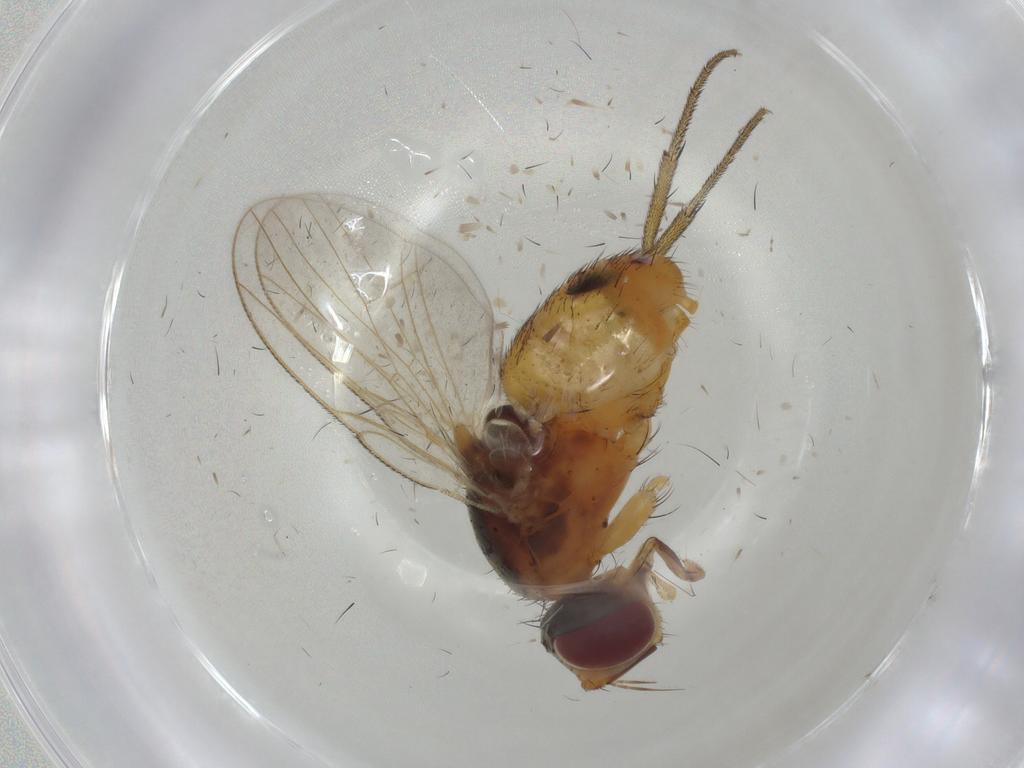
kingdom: Animalia
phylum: Arthropoda
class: Insecta
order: Diptera
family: Muscidae
